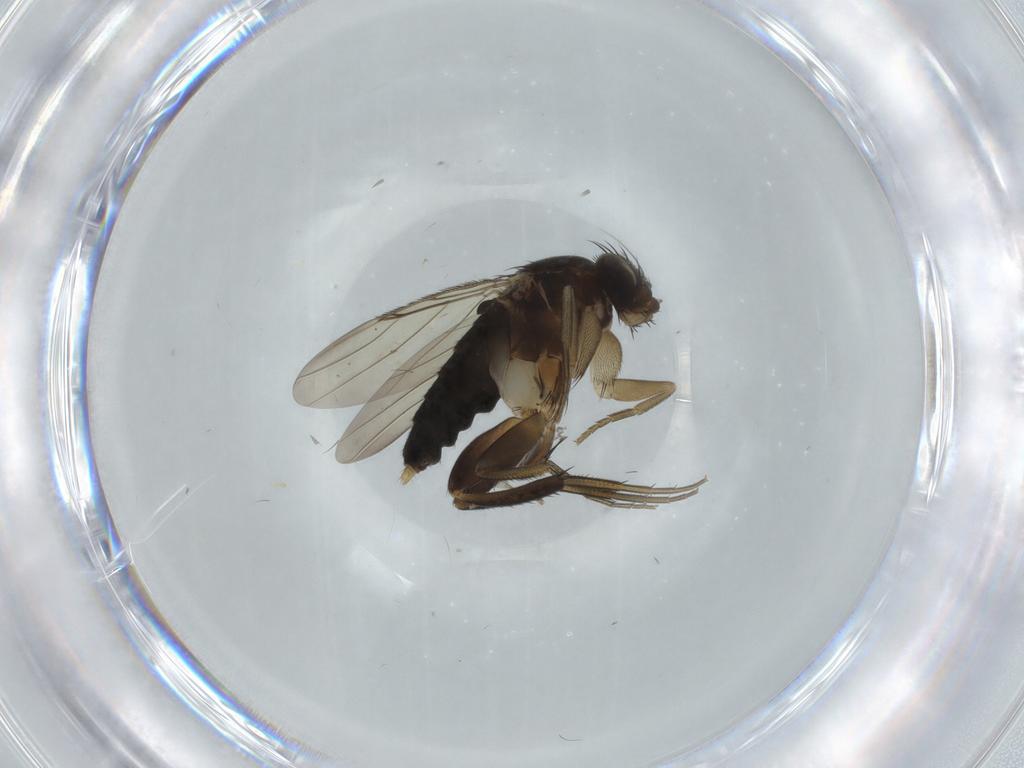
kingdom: Animalia
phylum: Arthropoda
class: Insecta
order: Diptera
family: Phoridae
